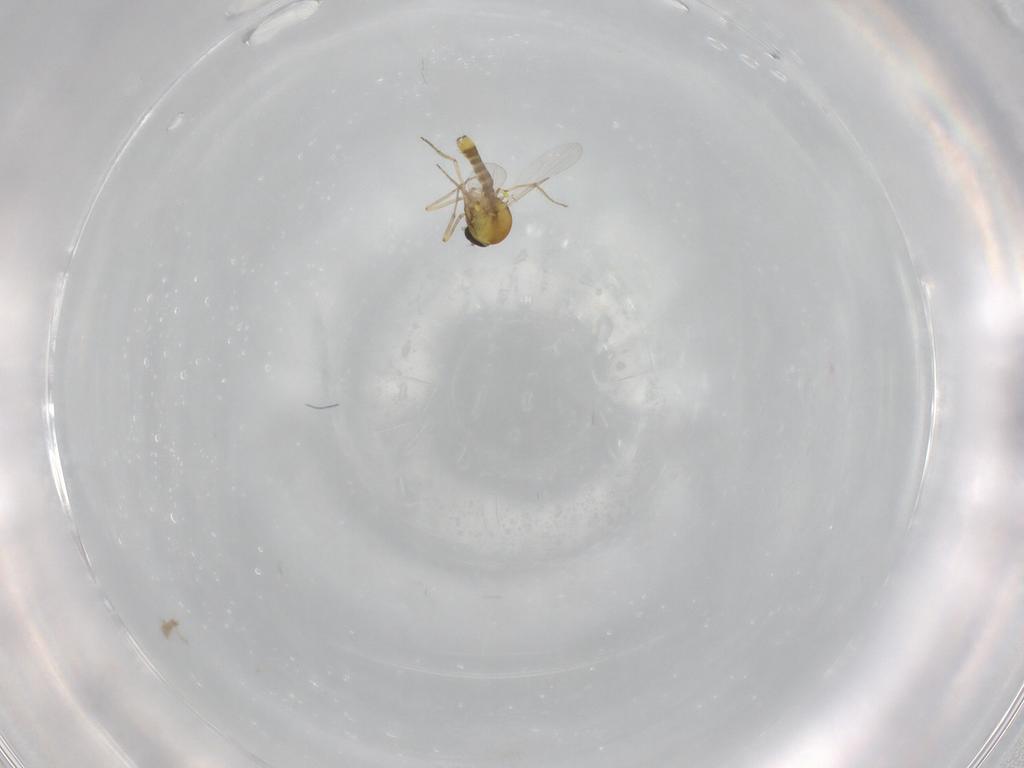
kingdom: Animalia
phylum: Arthropoda
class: Insecta
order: Diptera
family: Ceratopogonidae
